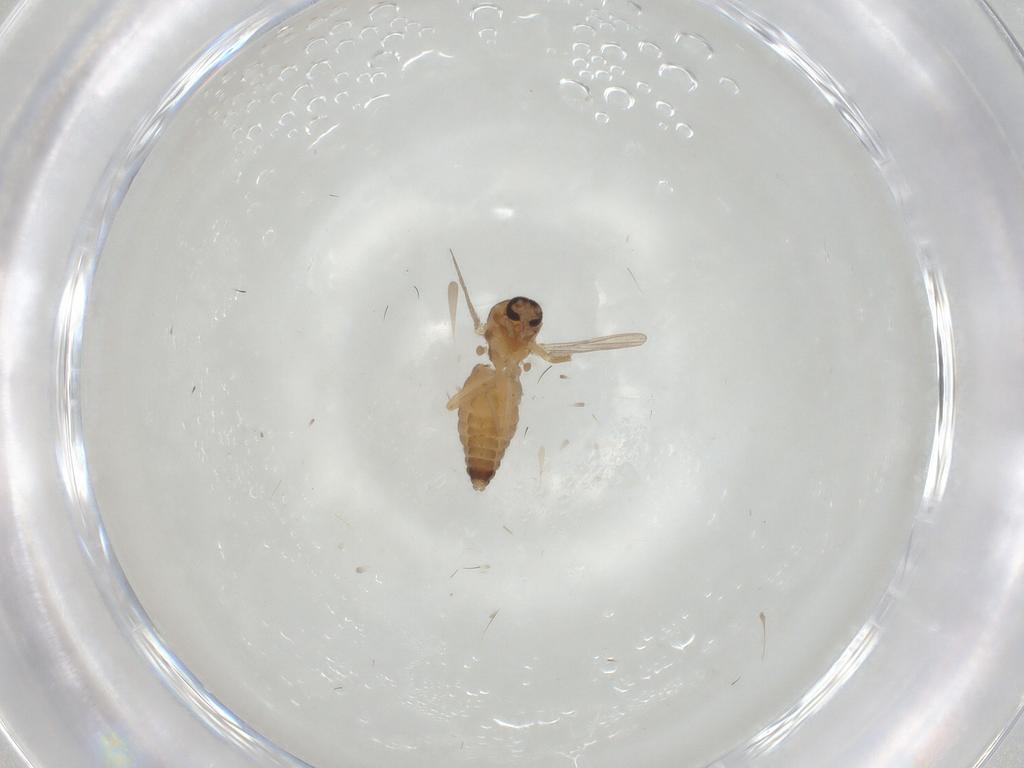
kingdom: Animalia
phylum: Arthropoda
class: Insecta
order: Diptera
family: Ceratopogonidae
